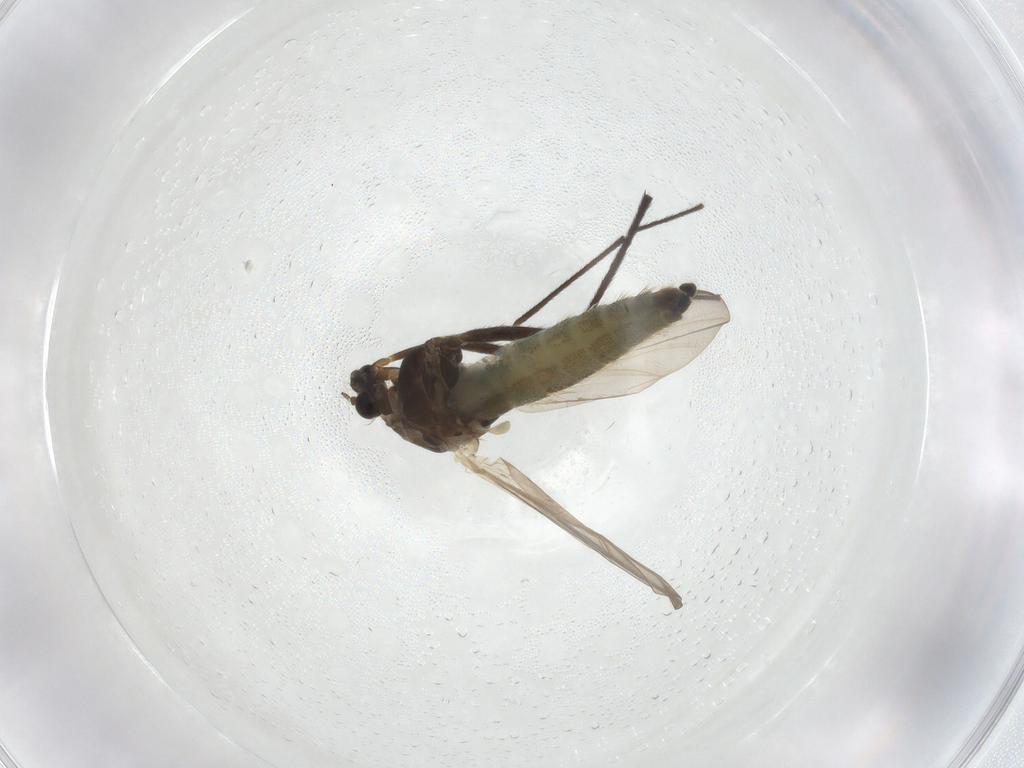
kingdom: Animalia
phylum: Arthropoda
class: Insecta
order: Diptera
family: Chironomidae
